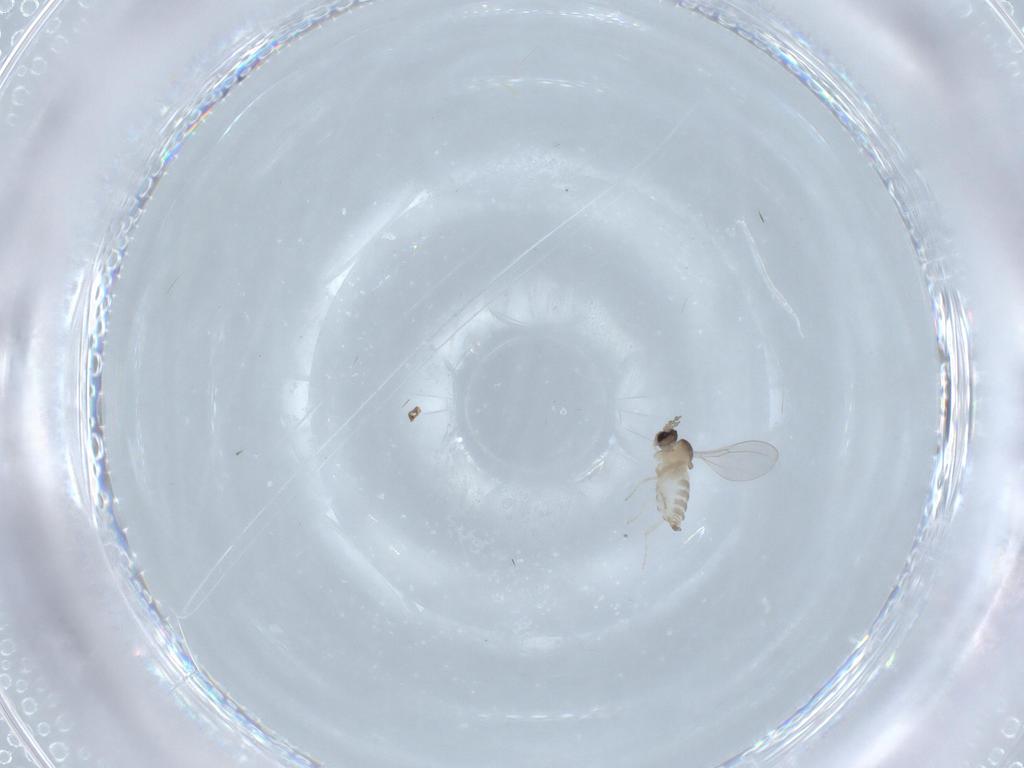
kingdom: Animalia
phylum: Arthropoda
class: Insecta
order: Diptera
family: Cecidomyiidae
